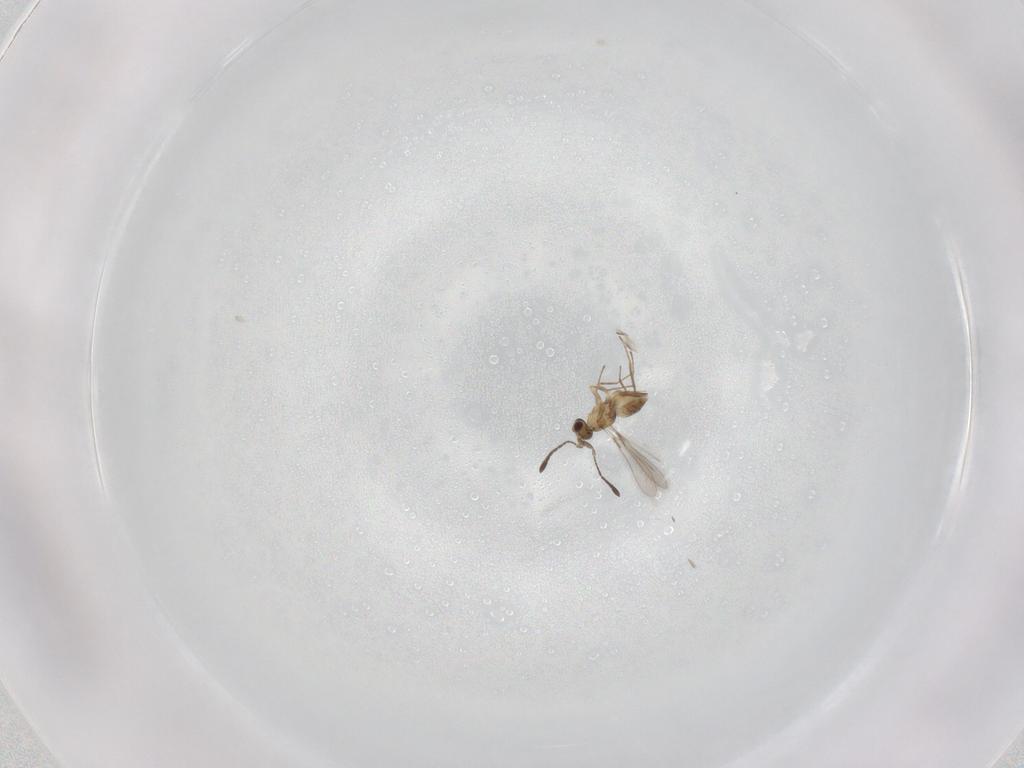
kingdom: Animalia
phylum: Arthropoda
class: Insecta
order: Hymenoptera
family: Mymaridae
